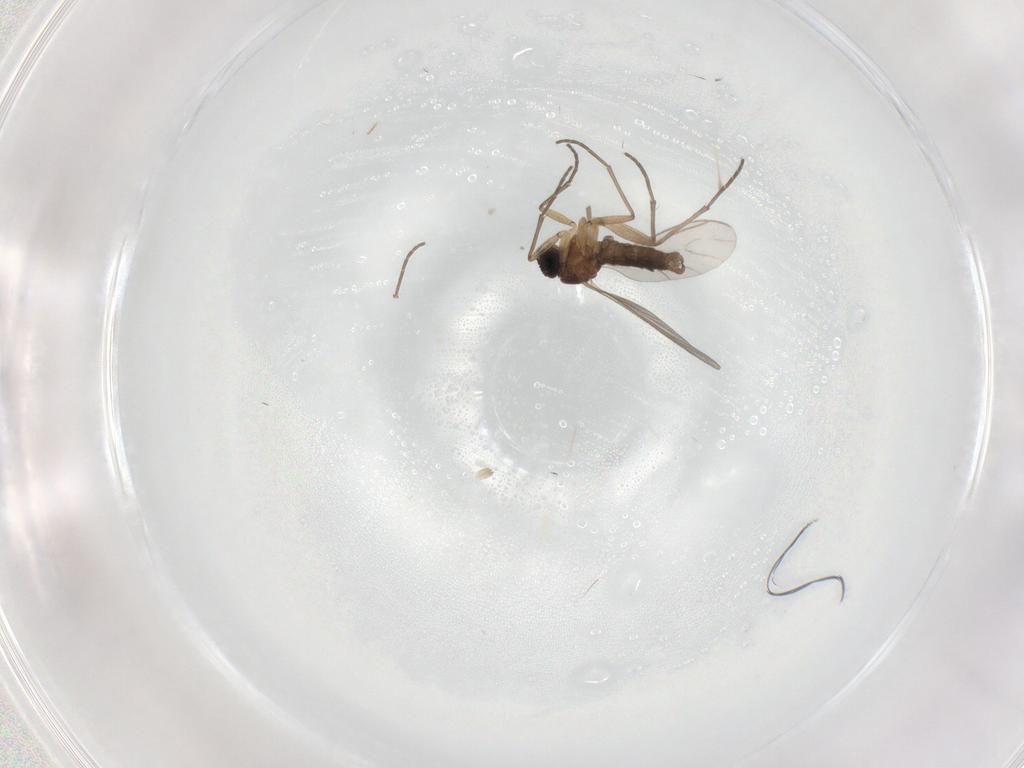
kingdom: Animalia
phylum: Arthropoda
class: Insecta
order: Diptera
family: Sciaridae
